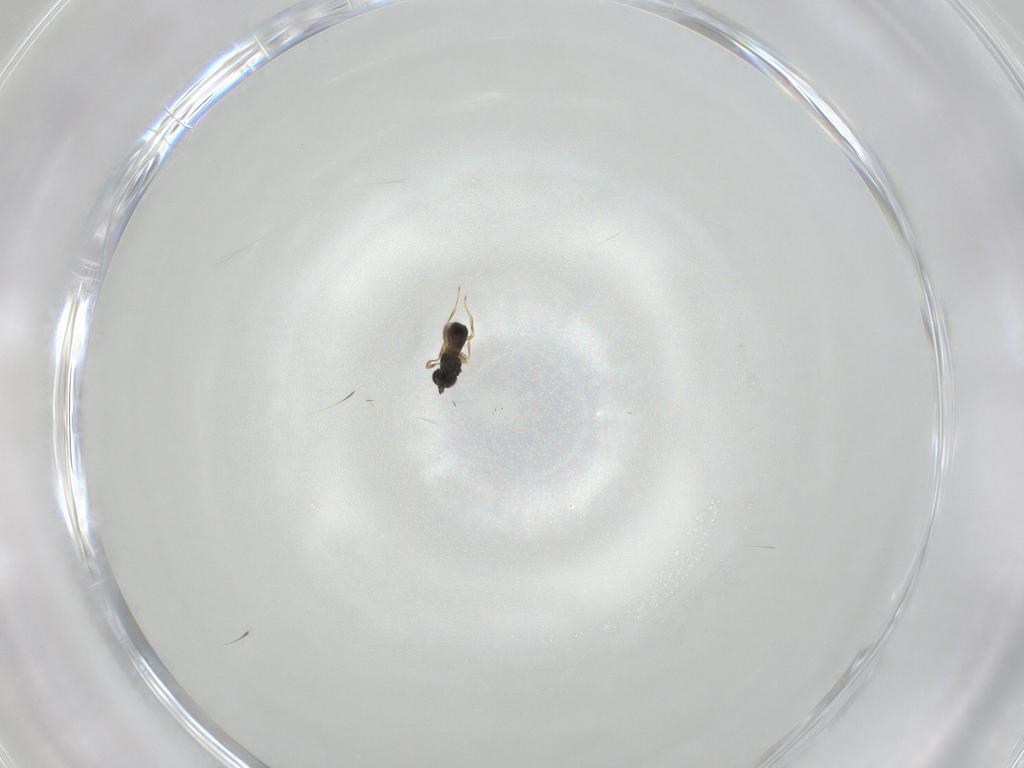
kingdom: Animalia
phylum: Arthropoda
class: Insecta
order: Hymenoptera
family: Scelionidae
